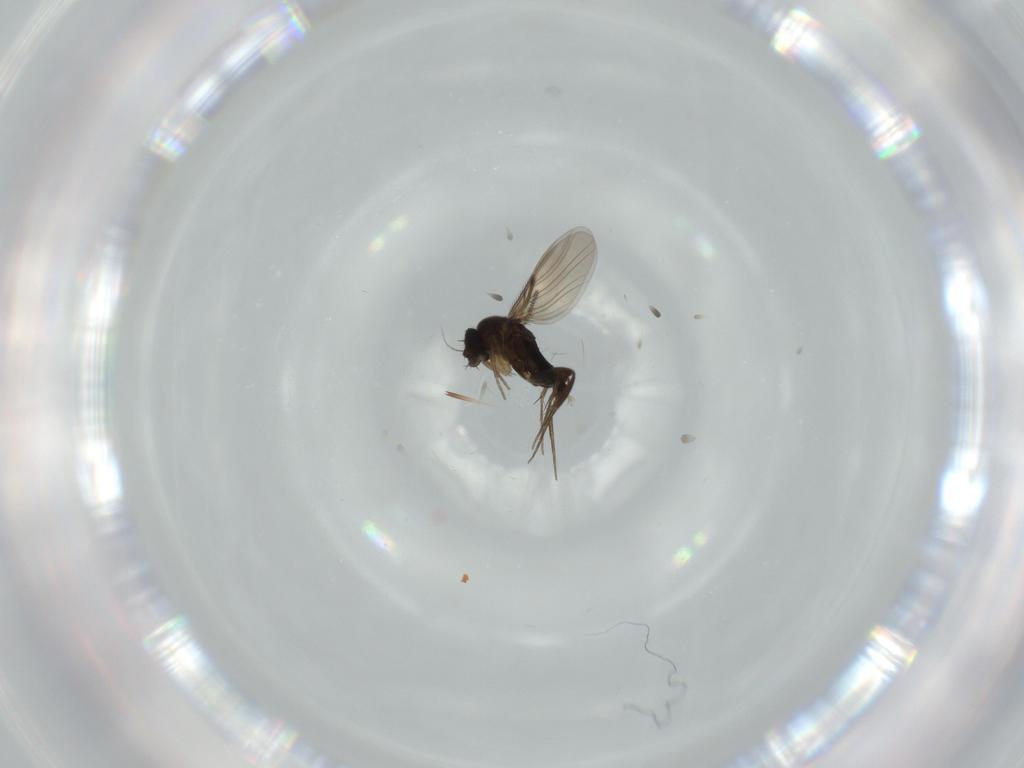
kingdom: Animalia
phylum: Arthropoda
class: Insecta
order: Diptera
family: Phoridae
